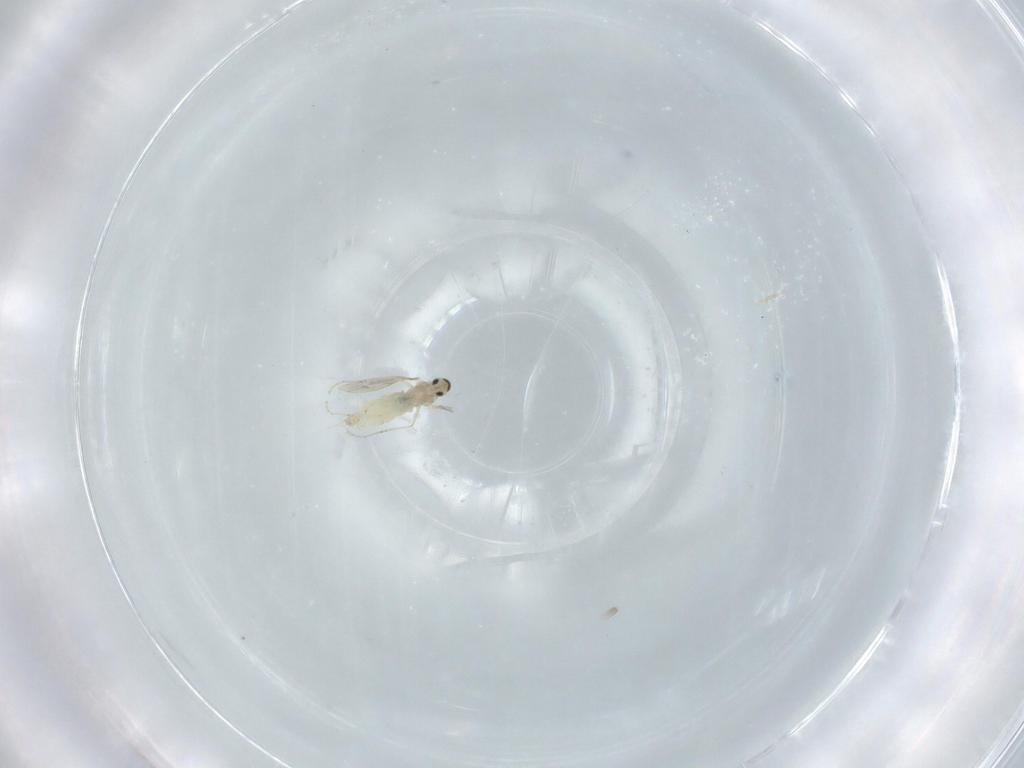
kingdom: Animalia
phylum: Arthropoda
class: Insecta
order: Diptera
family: Cecidomyiidae
